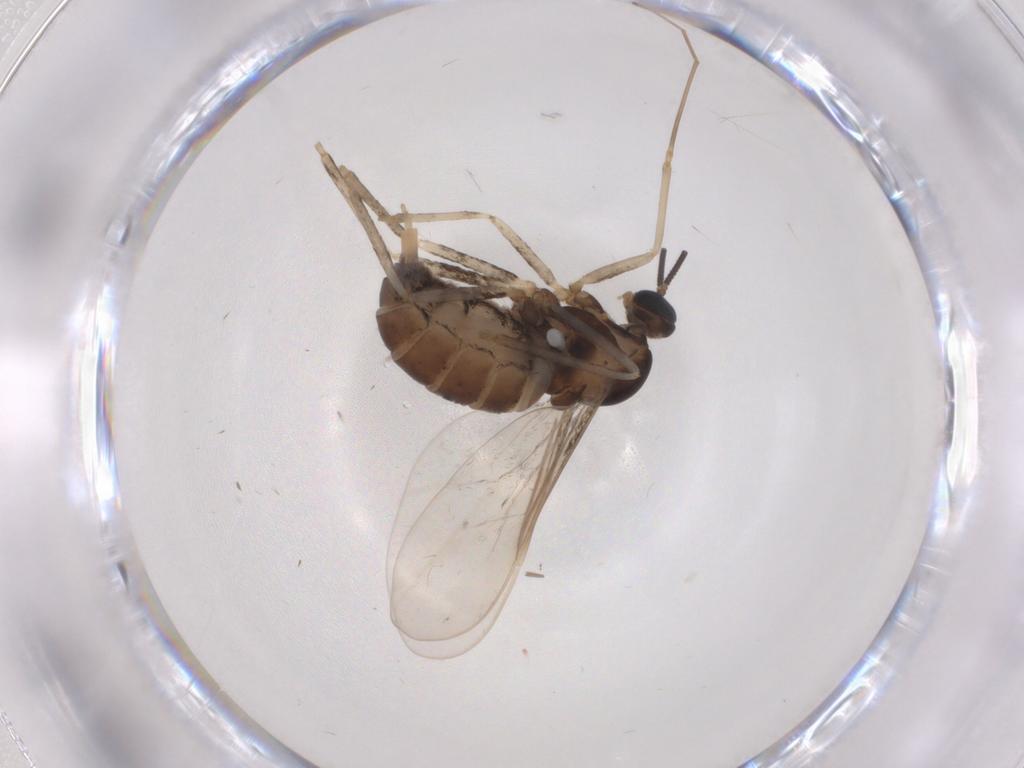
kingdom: Animalia
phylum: Arthropoda
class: Insecta
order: Diptera
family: Cecidomyiidae
